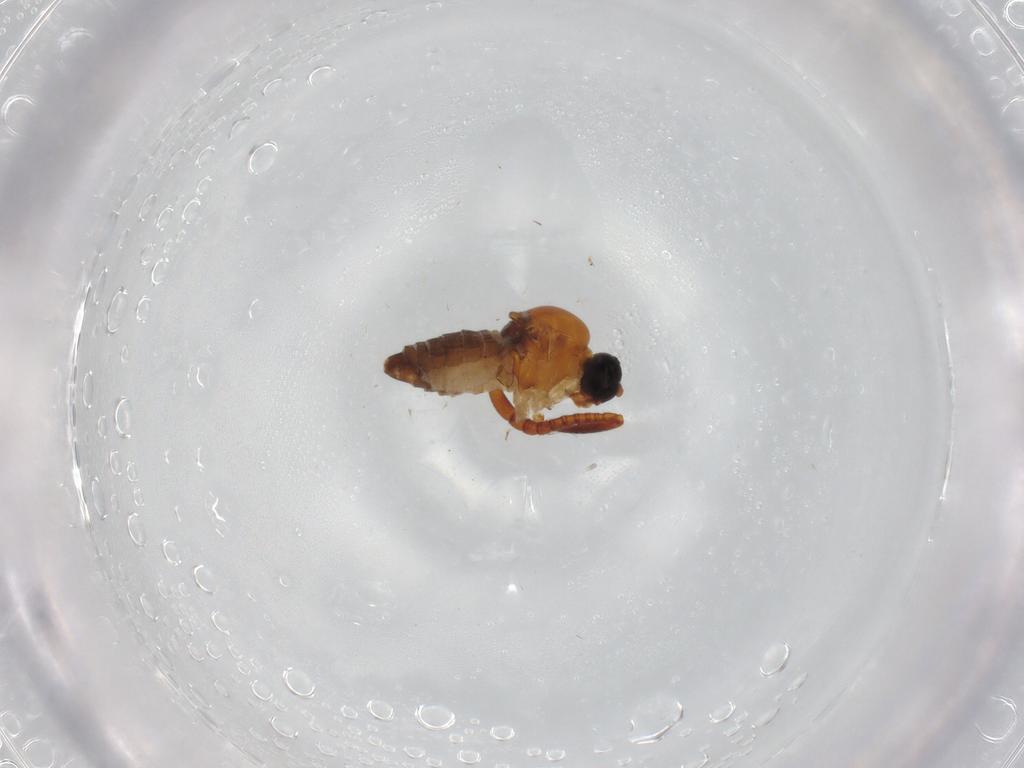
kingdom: Animalia
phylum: Arthropoda
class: Insecta
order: Diptera
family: Hybotidae
